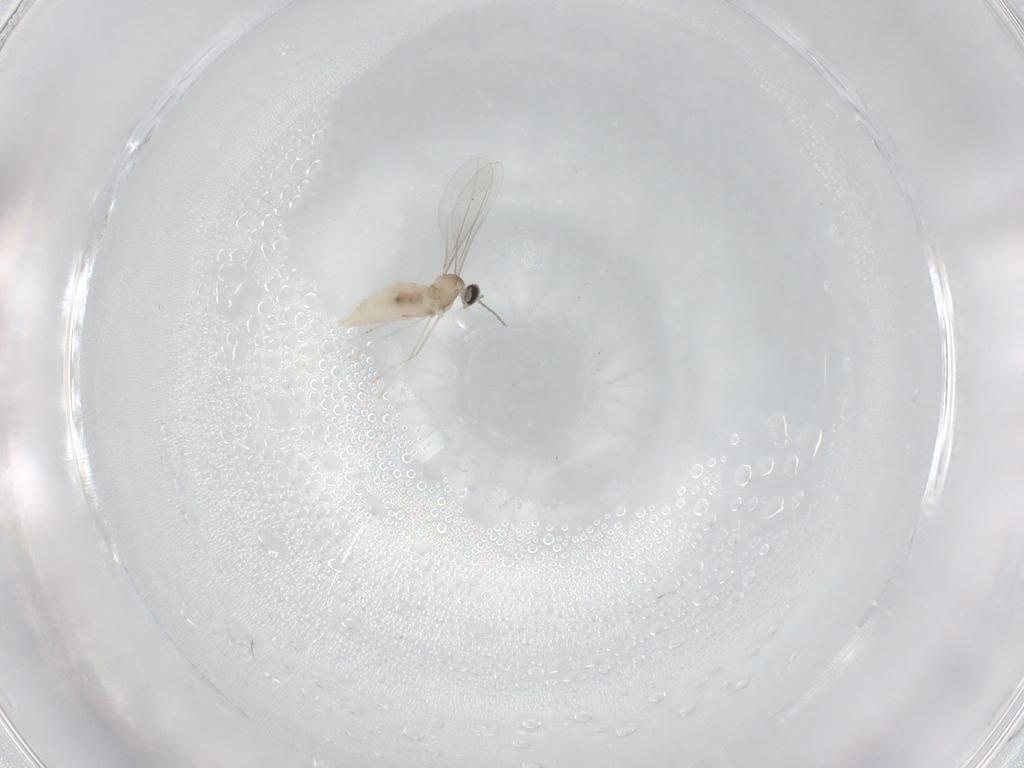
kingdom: Animalia
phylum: Arthropoda
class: Insecta
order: Diptera
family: Cecidomyiidae
